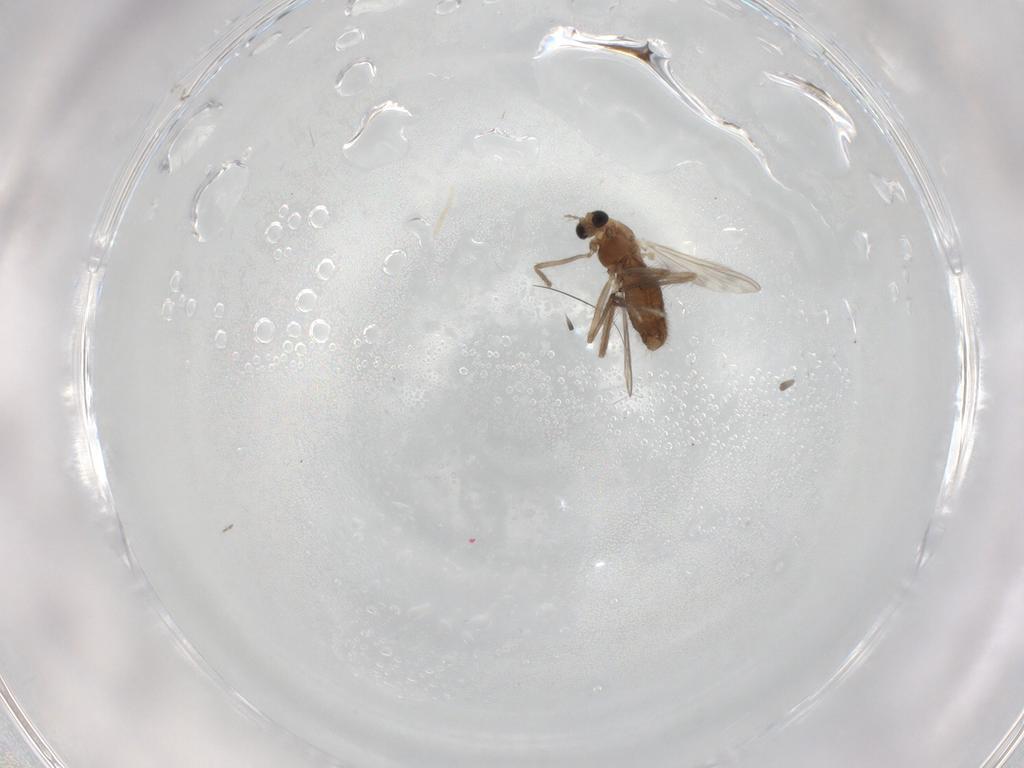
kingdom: Animalia
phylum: Arthropoda
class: Insecta
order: Diptera
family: Chironomidae
